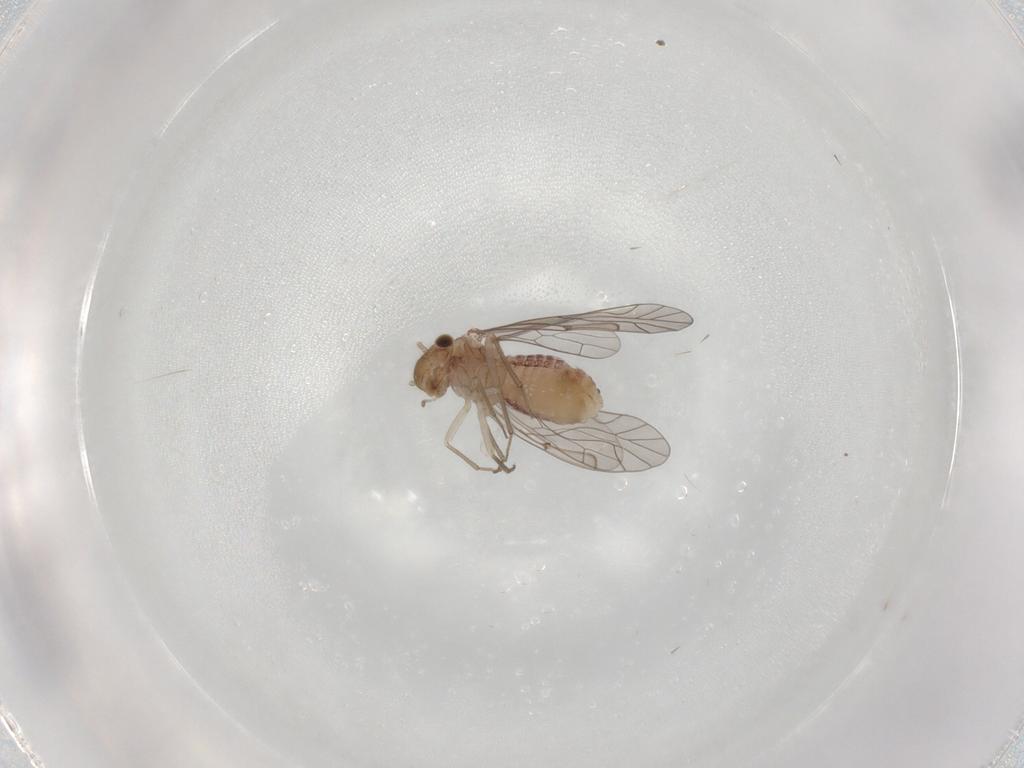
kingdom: Animalia
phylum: Arthropoda
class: Insecta
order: Psocodea
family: Lachesillidae
